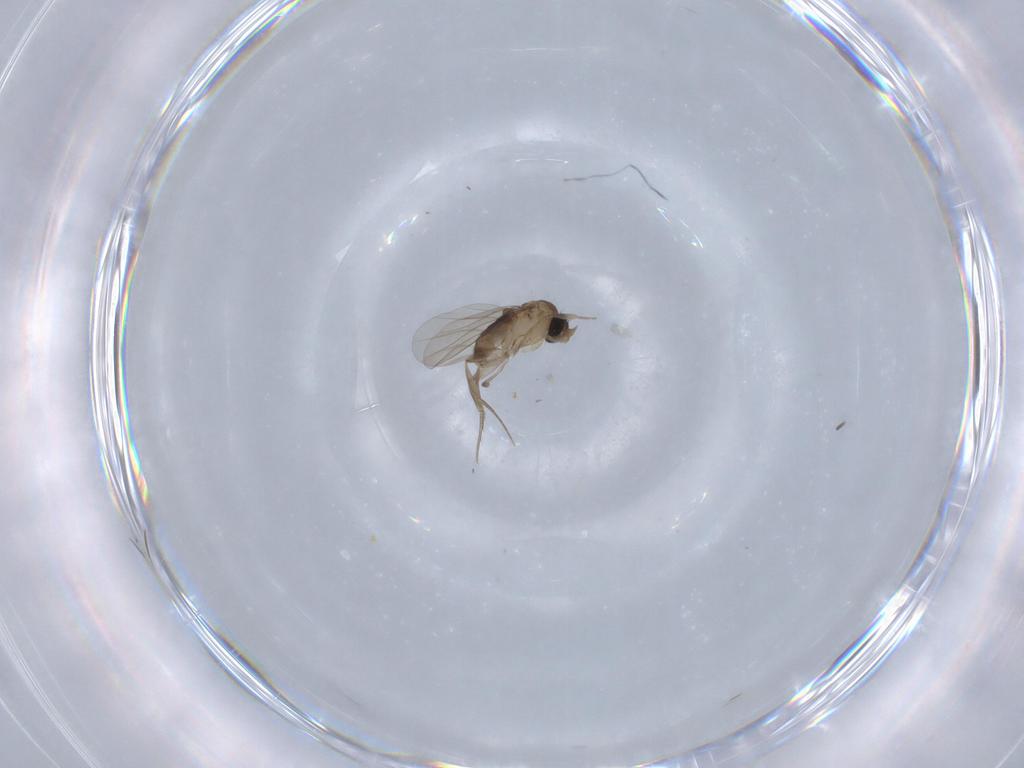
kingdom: Animalia
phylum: Arthropoda
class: Insecta
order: Diptera
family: Phoridae
